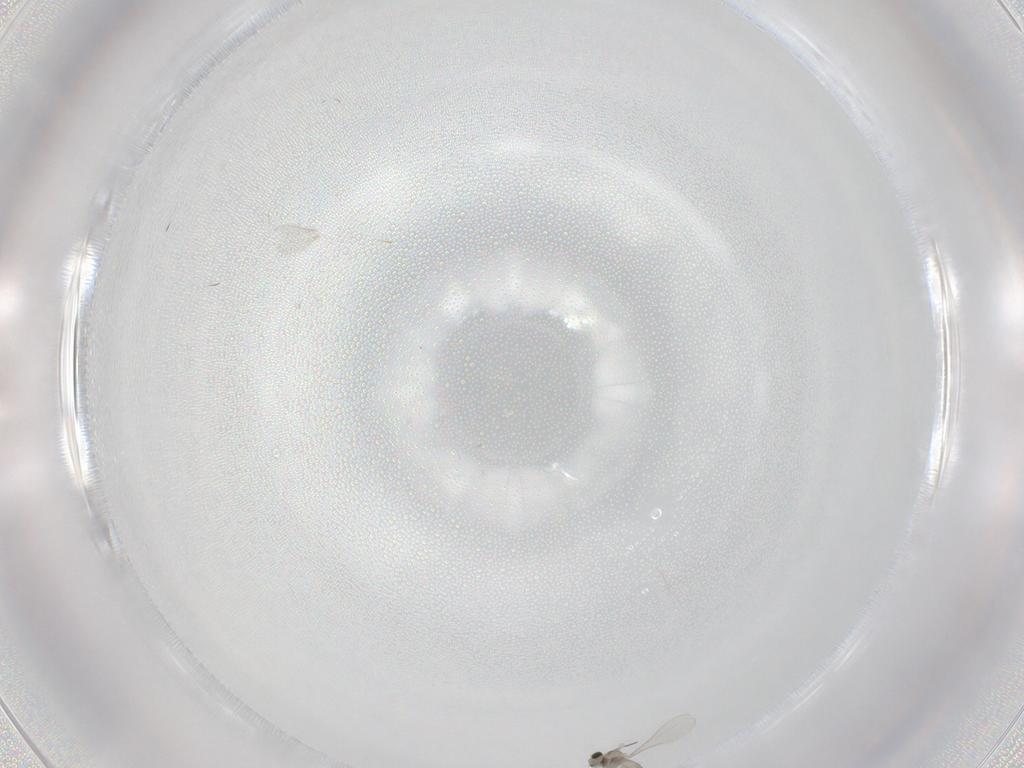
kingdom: Animalia
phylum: Arthropoda
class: Insecta
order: Diptera
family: Cecidomyiidae
